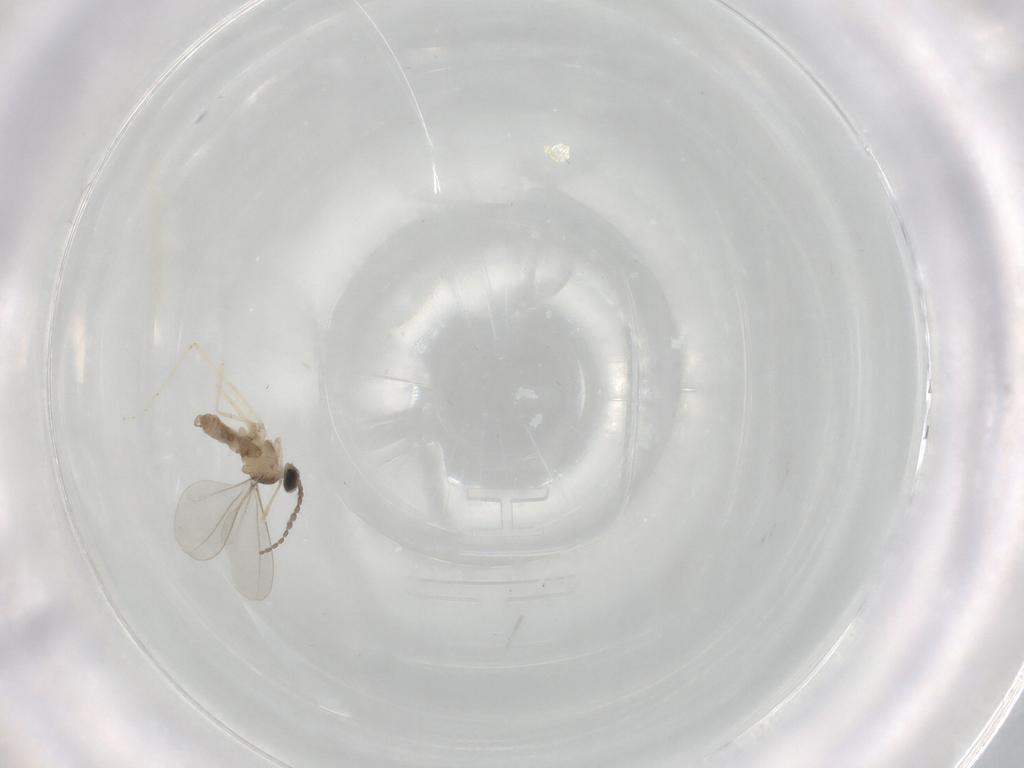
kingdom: Animalia
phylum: Arthropoda
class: Insecta
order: Diptera
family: Psychodidae
